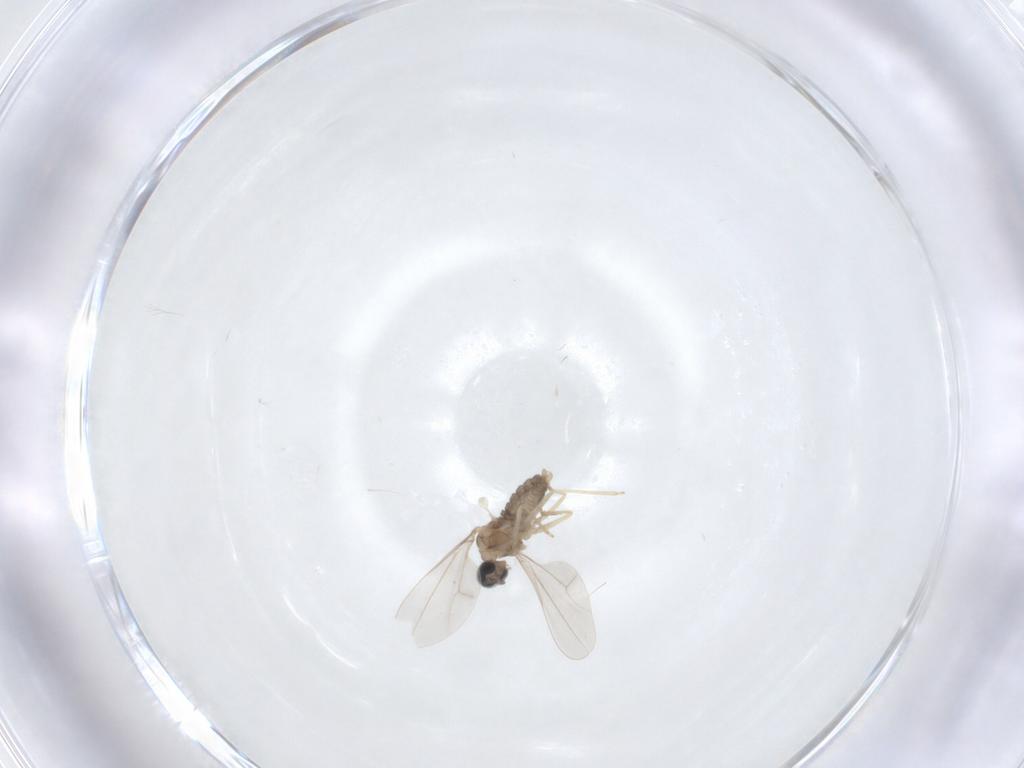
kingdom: Animalia
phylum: Arthropoda
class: Insecta
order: Diptera
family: Cecidomyiidae
